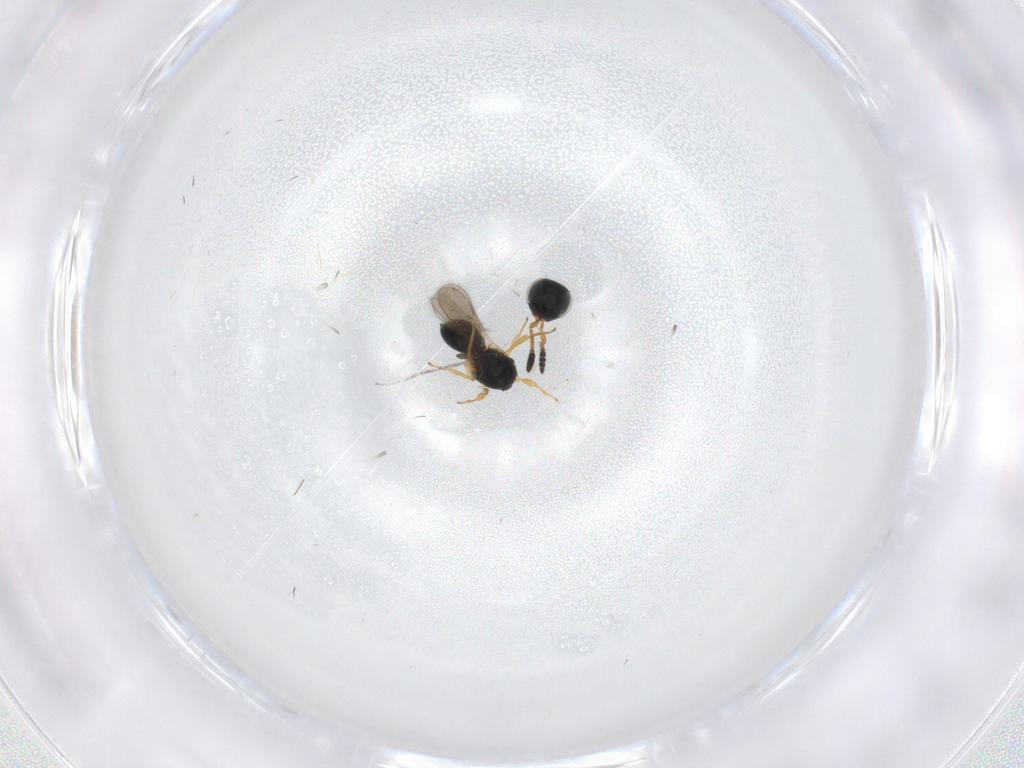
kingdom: Animalia
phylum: Arthropoda
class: Insecta
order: Hymenoptera
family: Scelionidae
